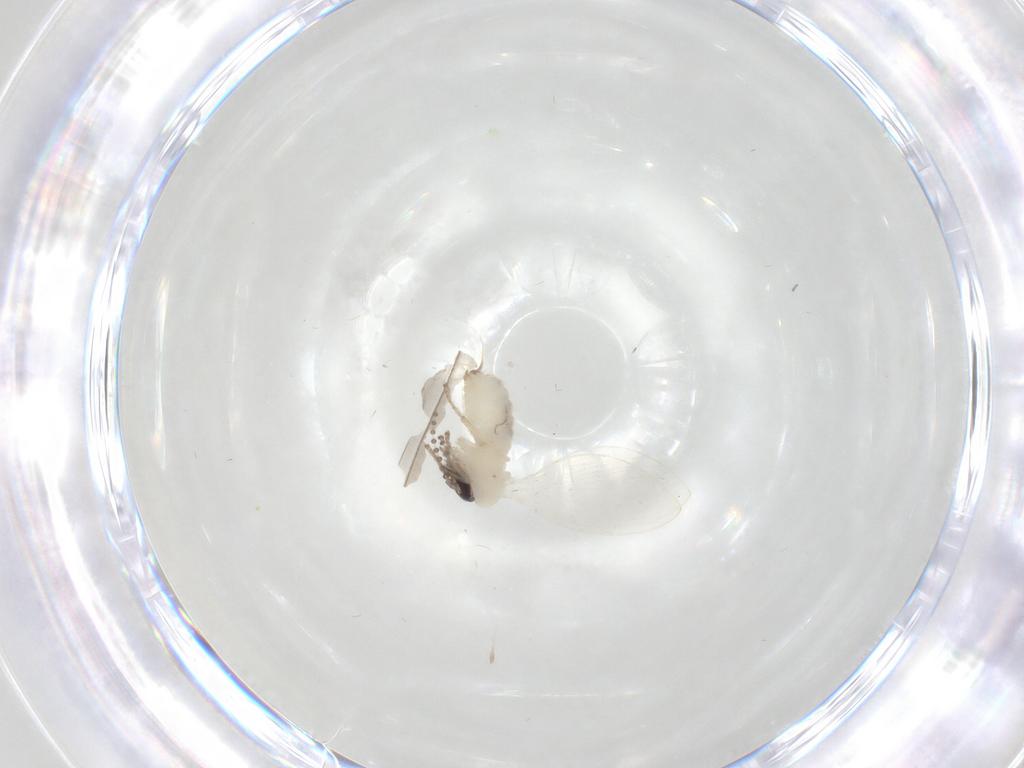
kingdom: Animalia
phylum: Arthropoda
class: Insecta
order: Diptera
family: Psychodidae
